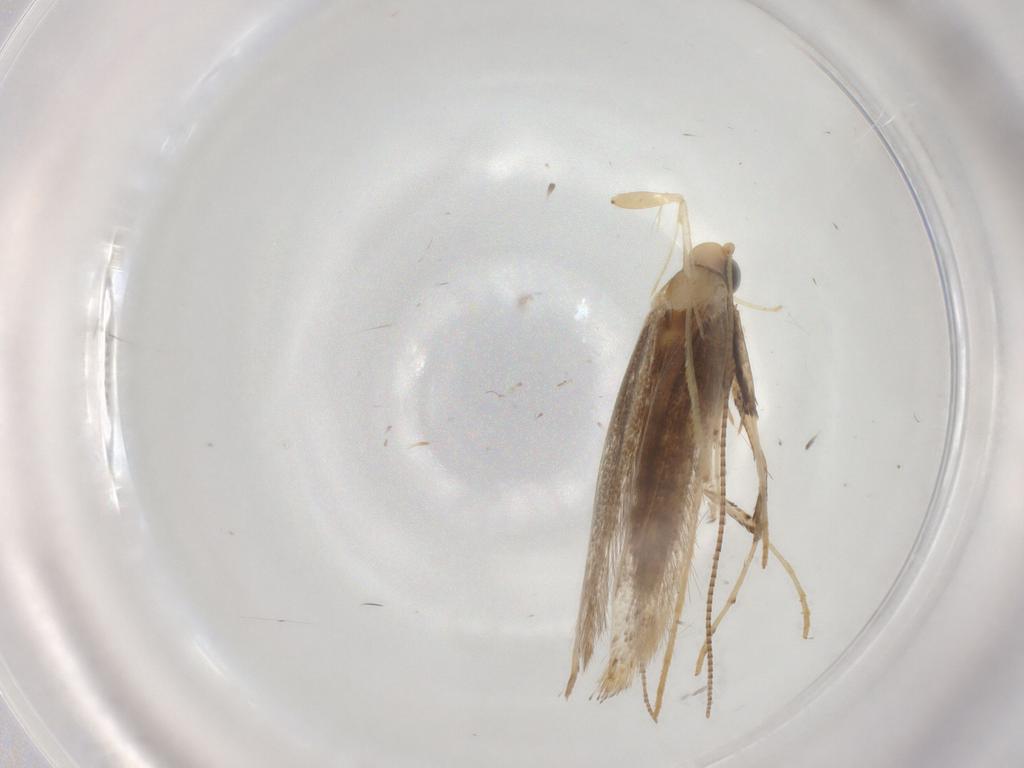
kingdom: Animalia
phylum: Arthropoda
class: Insecta
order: Lepidoptera
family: Gracillariidae
